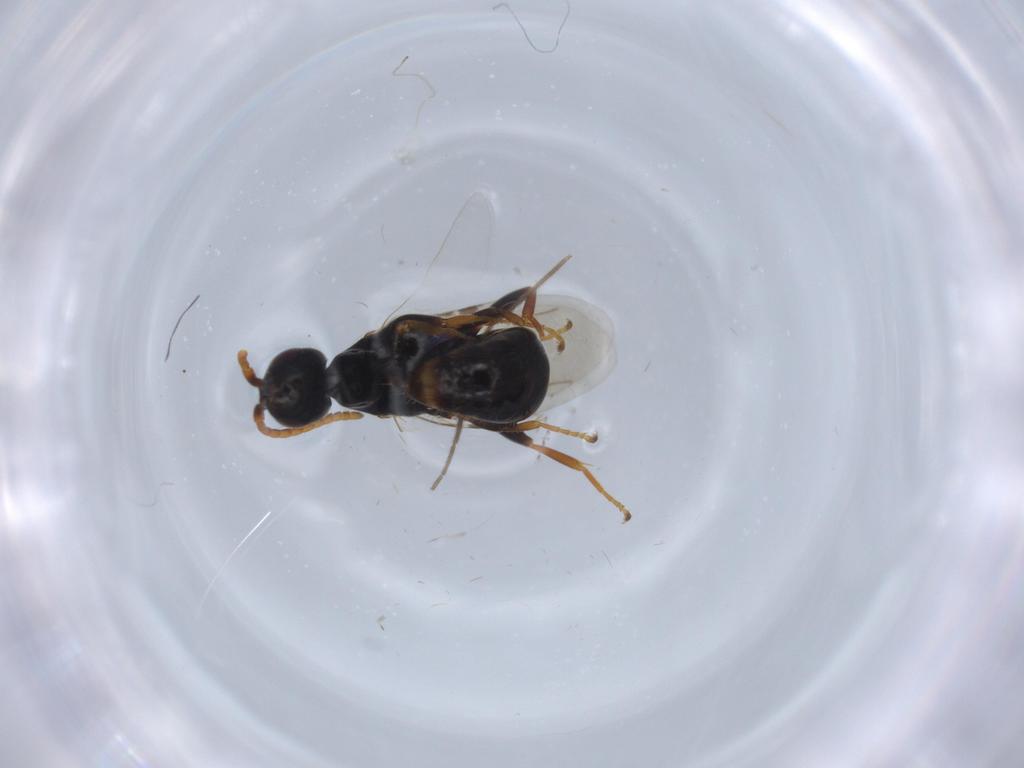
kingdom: Animalia
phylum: Arthropoda
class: Insecta
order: Hymenoptera
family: Bethylidae
